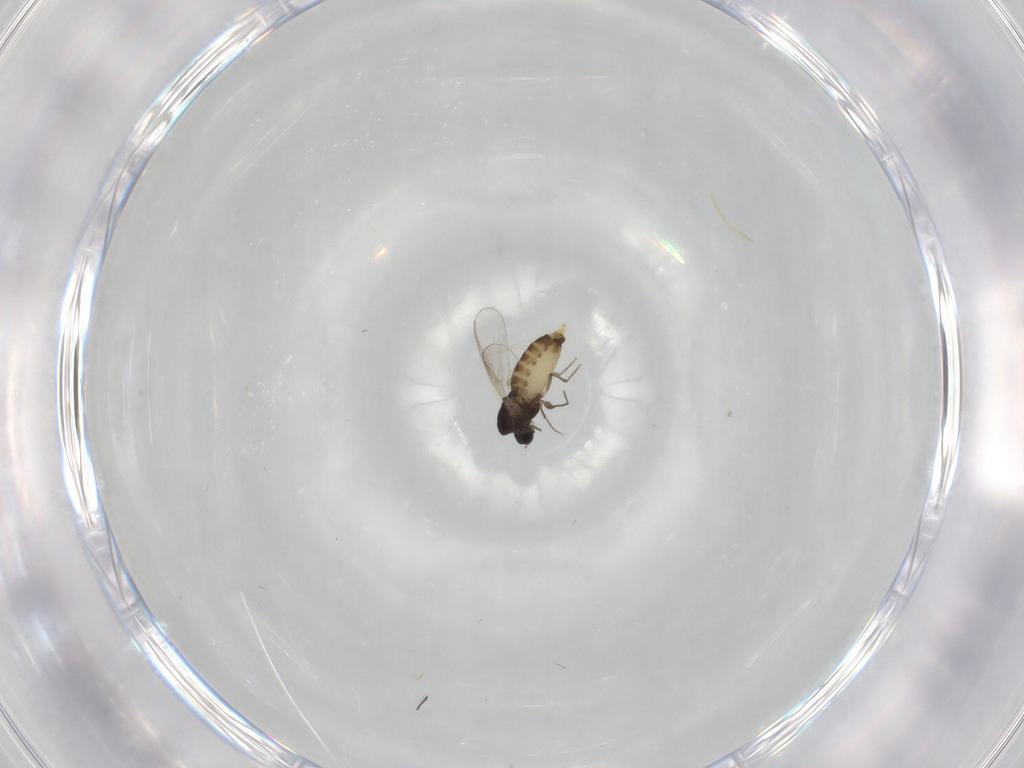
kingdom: Animalia
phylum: Arthropoda
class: Insecta
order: Diptera
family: Chironomidae
